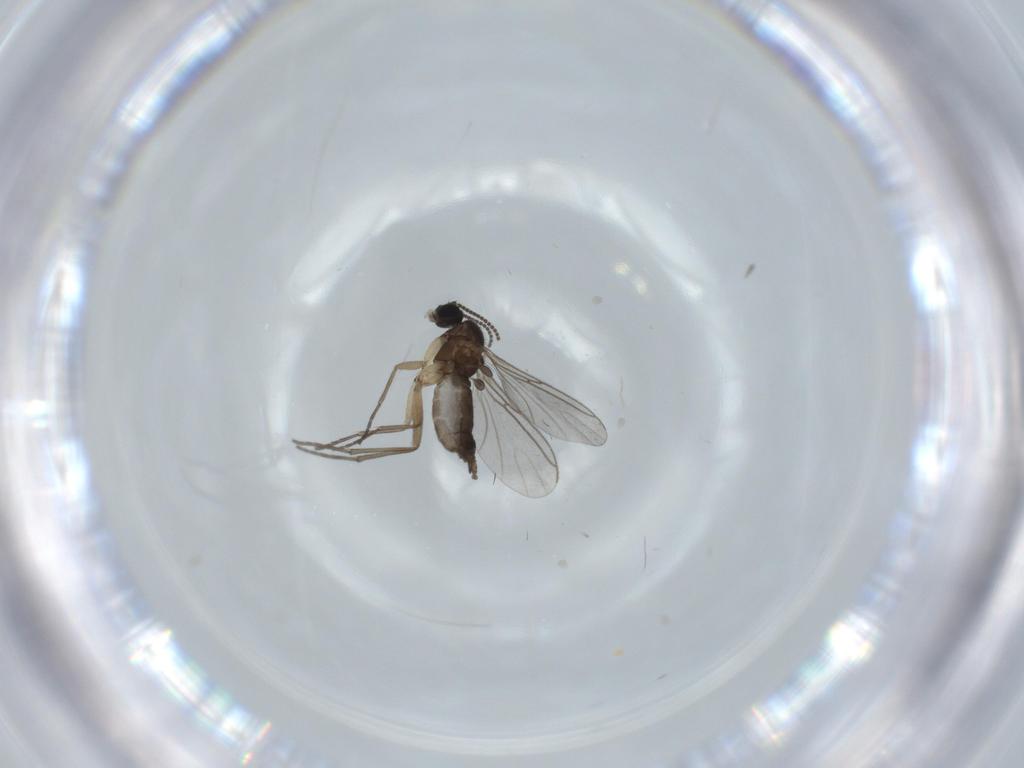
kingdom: Animalia
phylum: Arthropoda
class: Insecta
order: Diptera
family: Sciaridae
